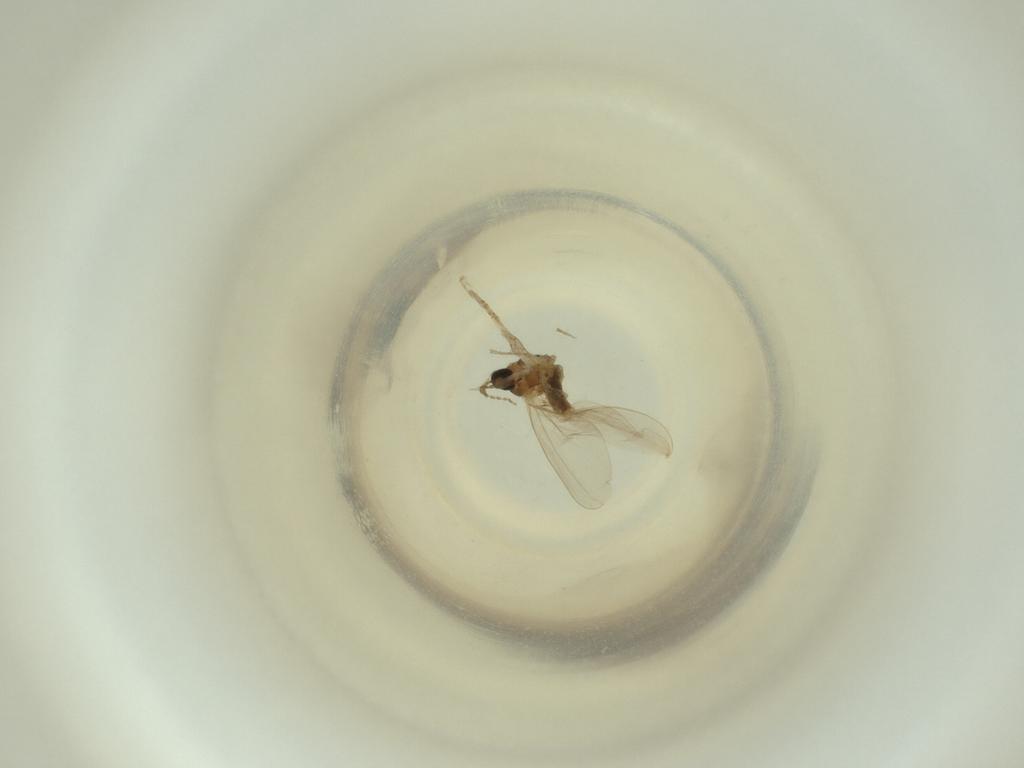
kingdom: Animalia
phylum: Arthropoda
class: Insecta
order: Diptera
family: Cecidomyiidae
